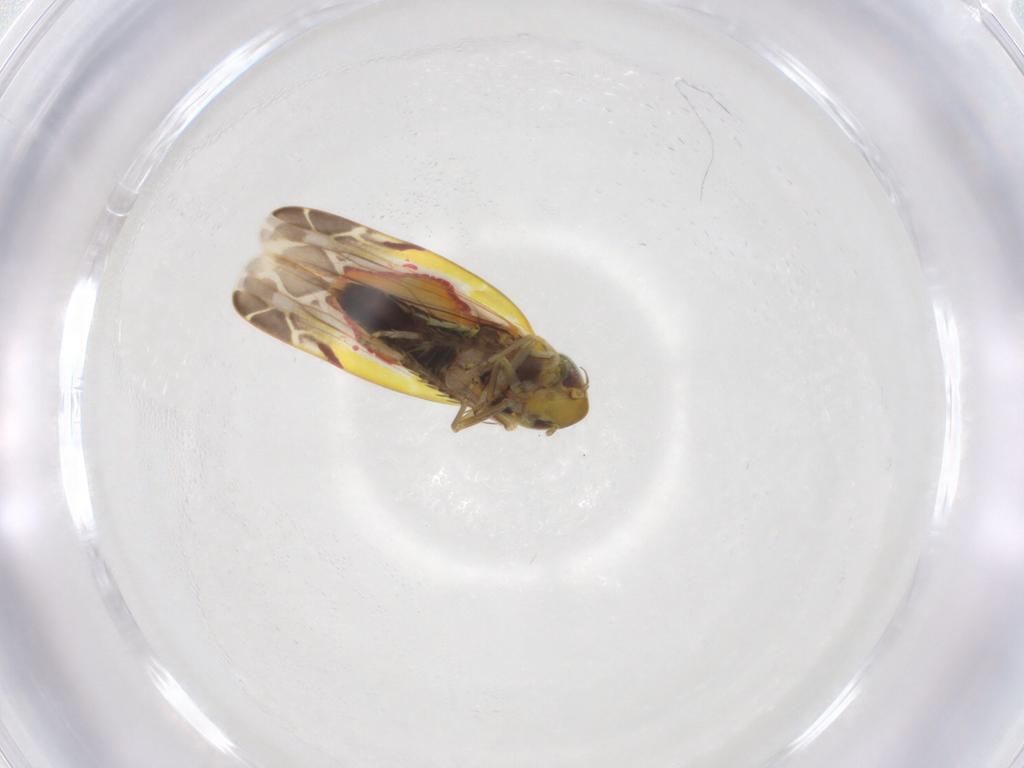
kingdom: Animalia
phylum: Arthropoda
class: Insecta
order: Hemiptera
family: Cicadellidae
